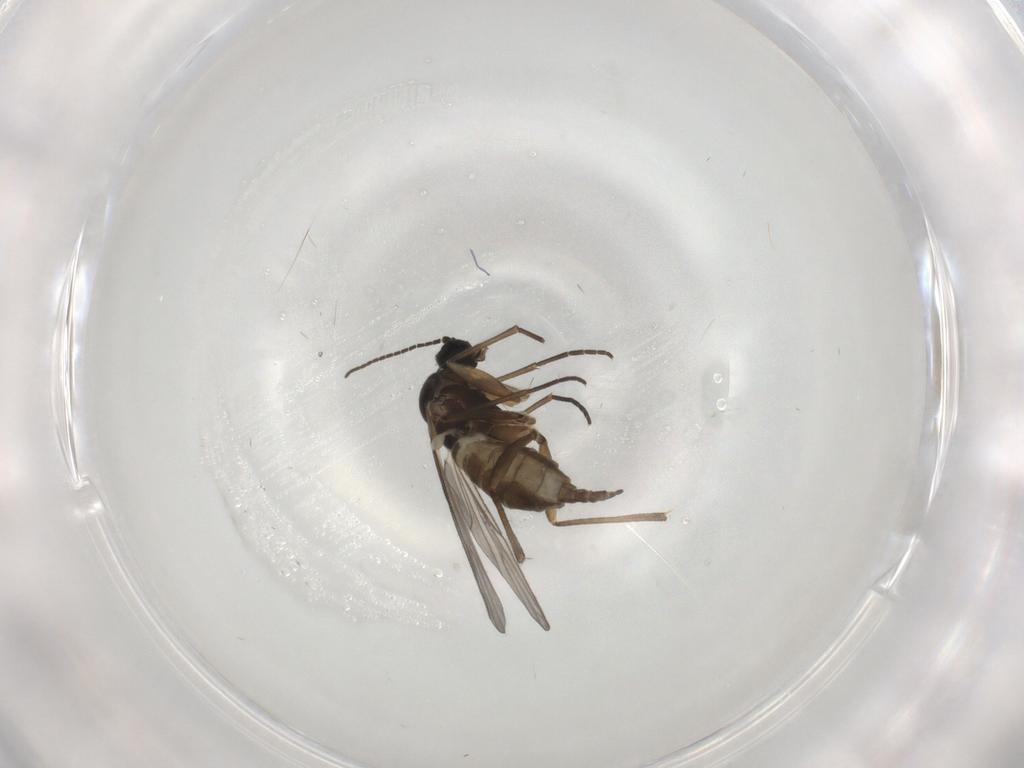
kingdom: Animalia
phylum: Arthropoda
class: Insecta
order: Diptera
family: Sciaridae
